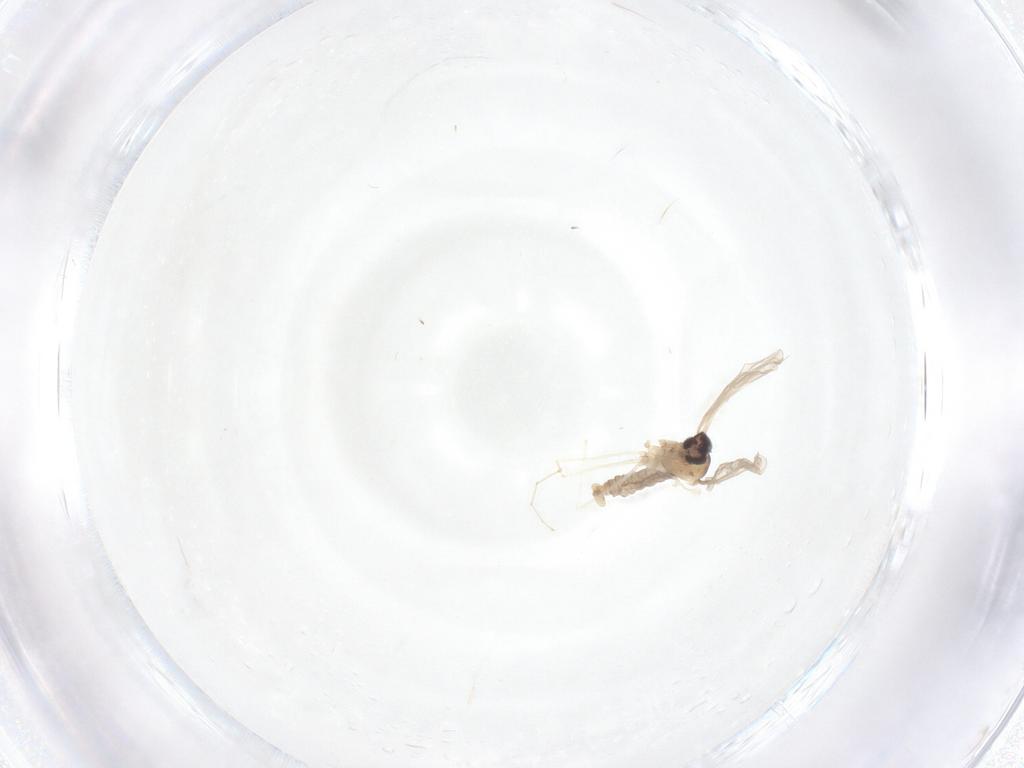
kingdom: Animalia
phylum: Arthropoda
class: Insecta
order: Diptera
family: Cecidomyiidae
